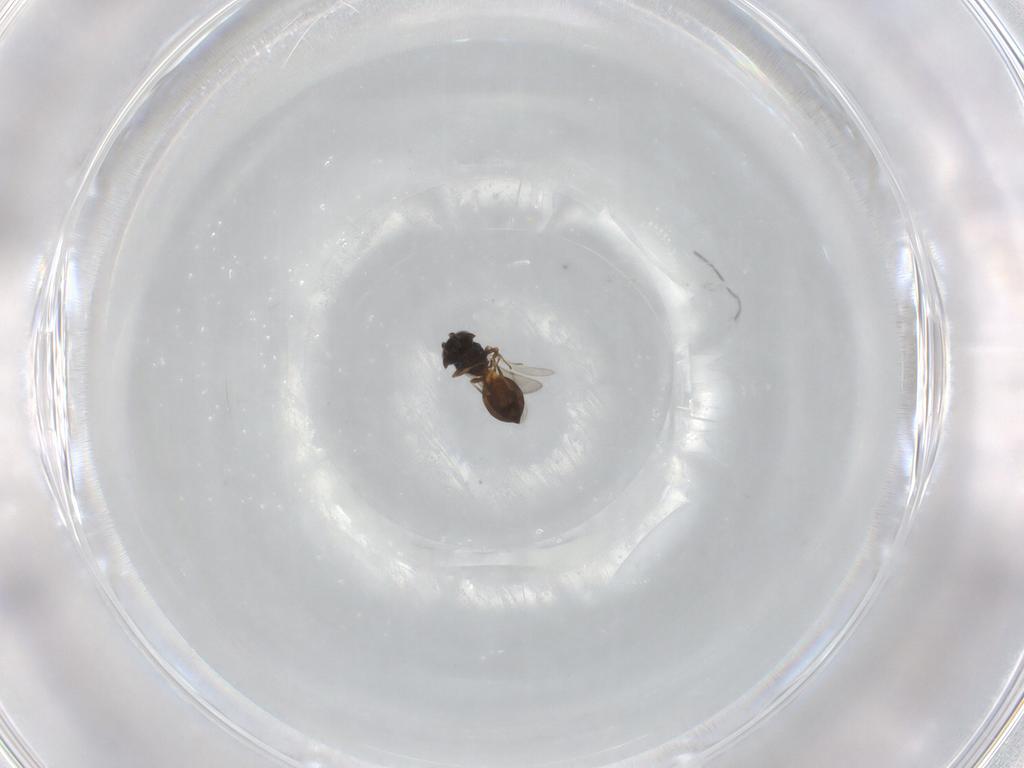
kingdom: Animalia
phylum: Arthropoda
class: Insecta
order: Hymenoptera
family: Scelionidae
